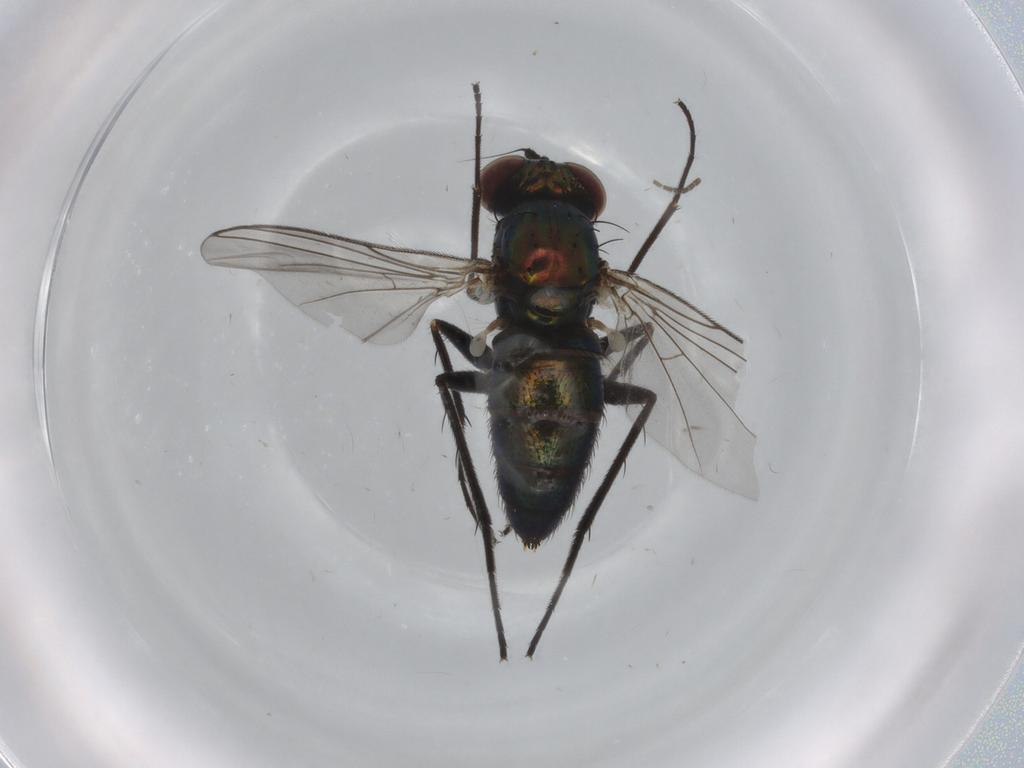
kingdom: Animalia
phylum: Arthropoda
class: Insecta
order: Diptera
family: Dolichopodidae
